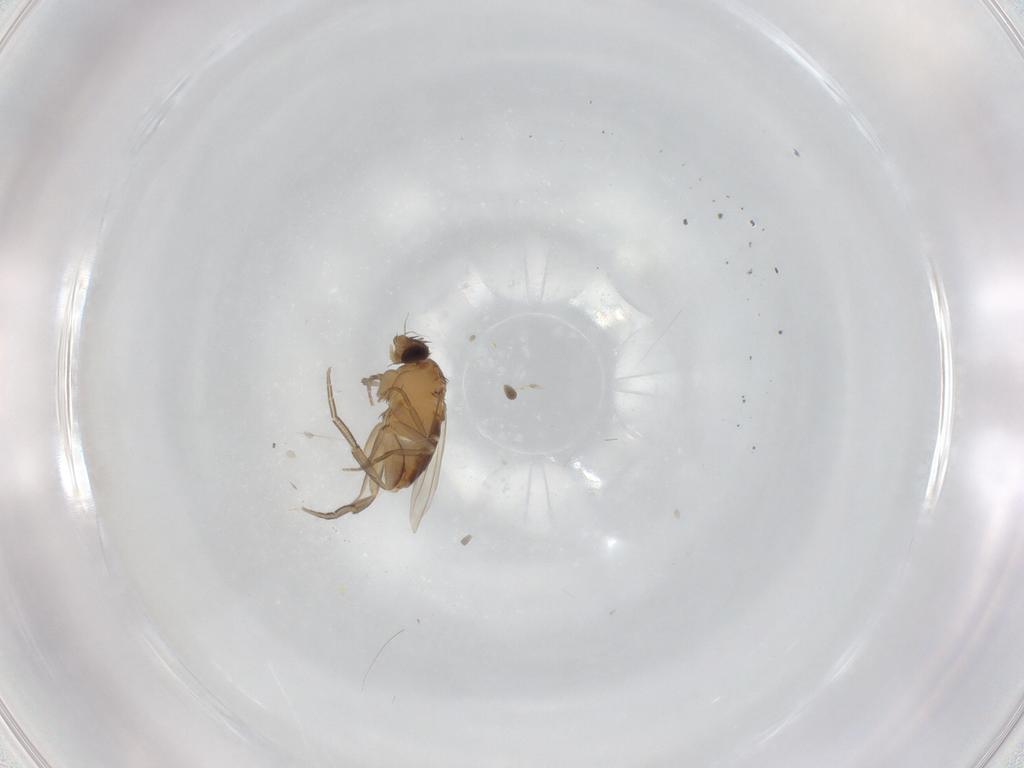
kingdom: Animalia
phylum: Arthropoda
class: Insecta
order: Diptera
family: Phoridae
